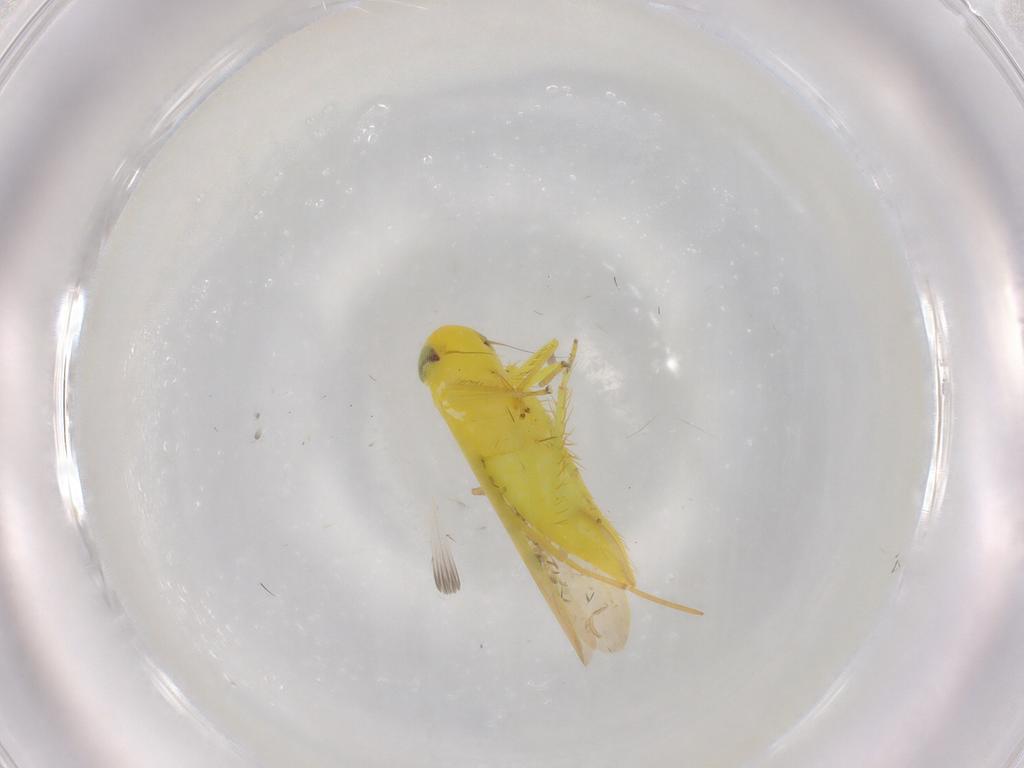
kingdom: Animalia
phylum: Arthropoda
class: Insecta
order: Hemiptera
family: Cicadellidae
